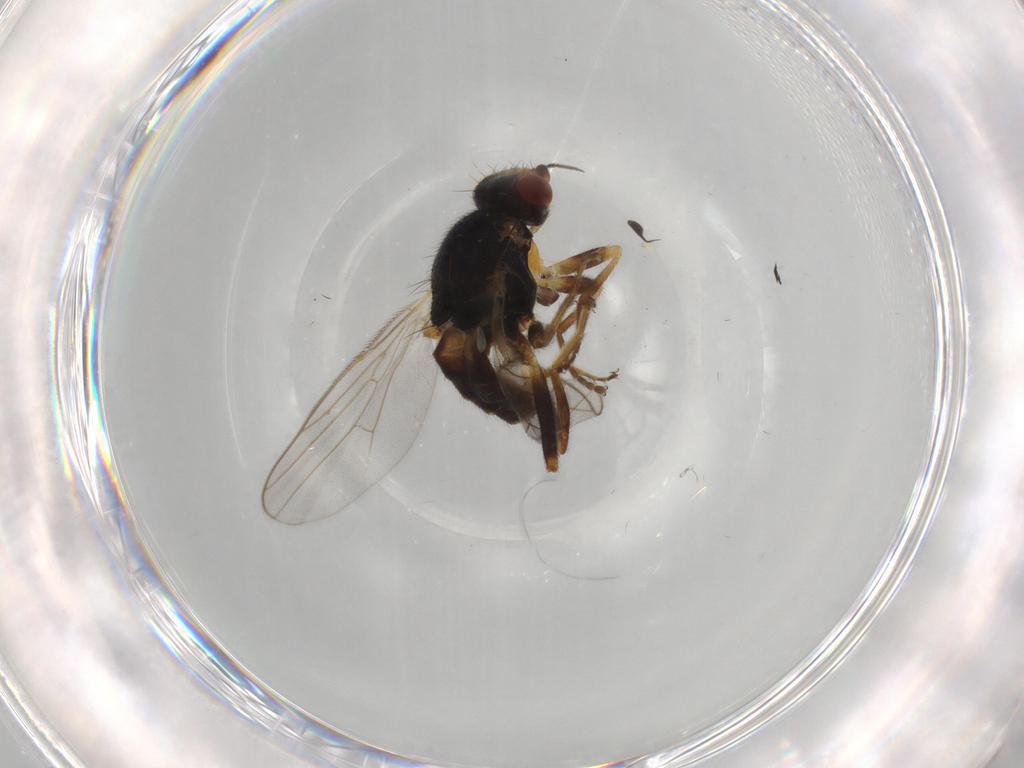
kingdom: Animalia
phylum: Arthropoda
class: Insecta
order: Diptera
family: Chloropidae
